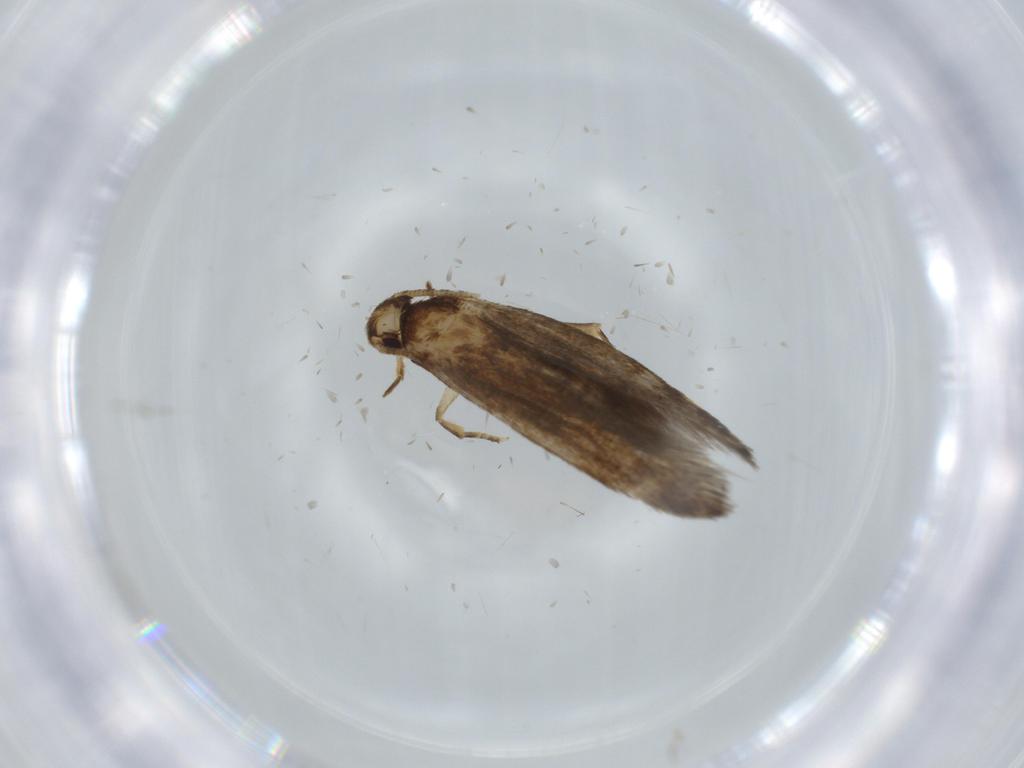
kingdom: Animalia
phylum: Arthropoda
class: Insecta
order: Lepidoptera
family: Tineidae
